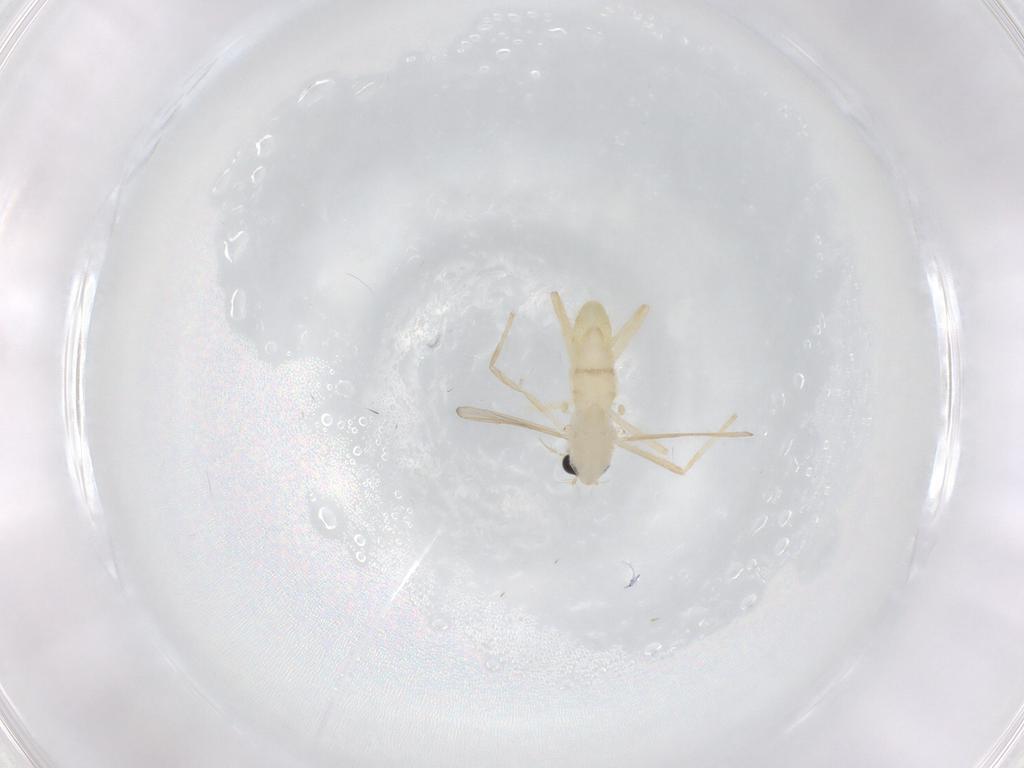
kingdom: Animalia
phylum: Arthropoda
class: Insecta
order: Diptera
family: Chironomidae
